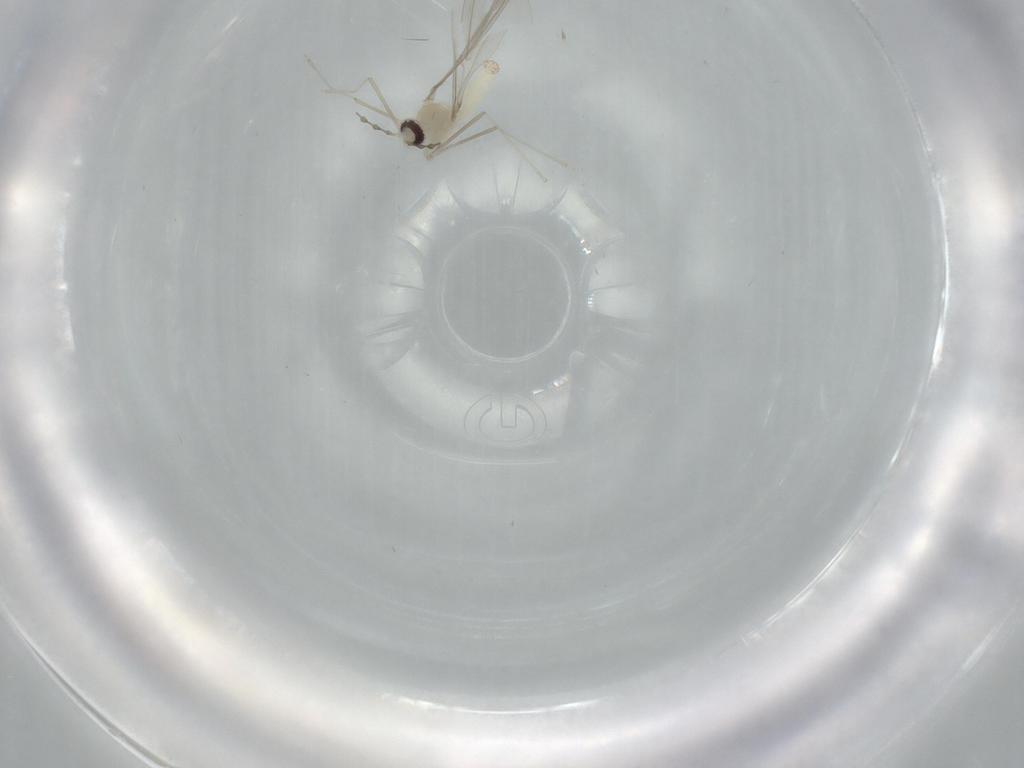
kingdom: Animalia
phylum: Arthropoda
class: Insecta
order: Diptera
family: Cecidomyiidae
